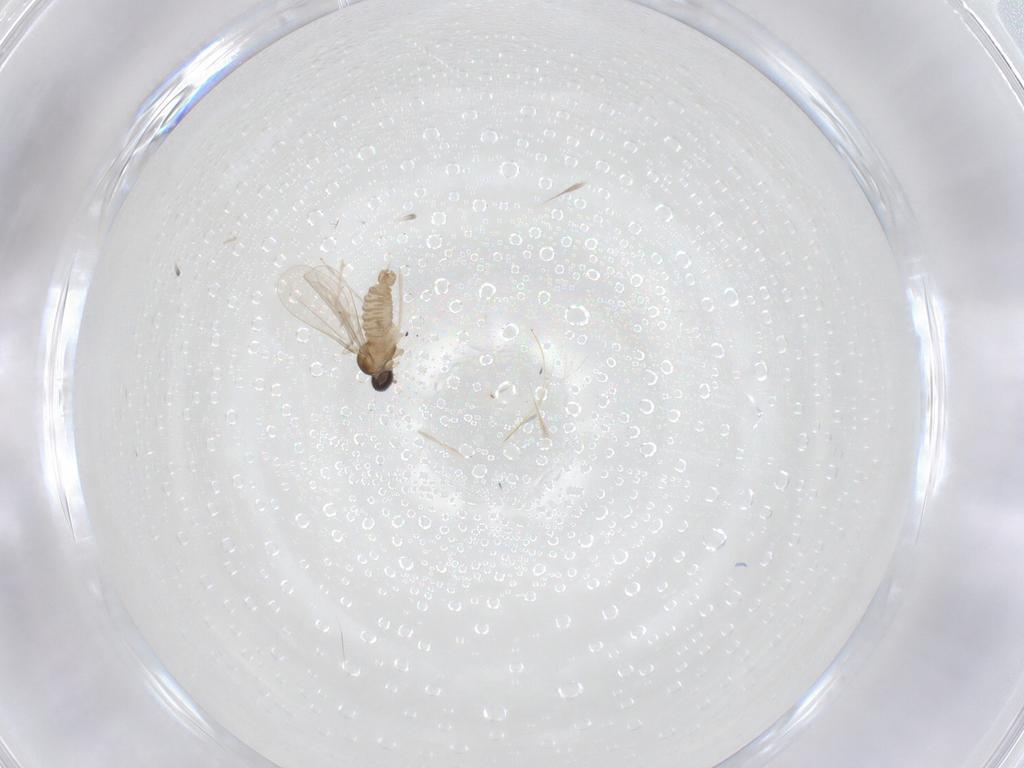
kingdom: Animalia
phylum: Arthropoda
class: Insecta
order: Diptera
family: Cecidomyiidae
